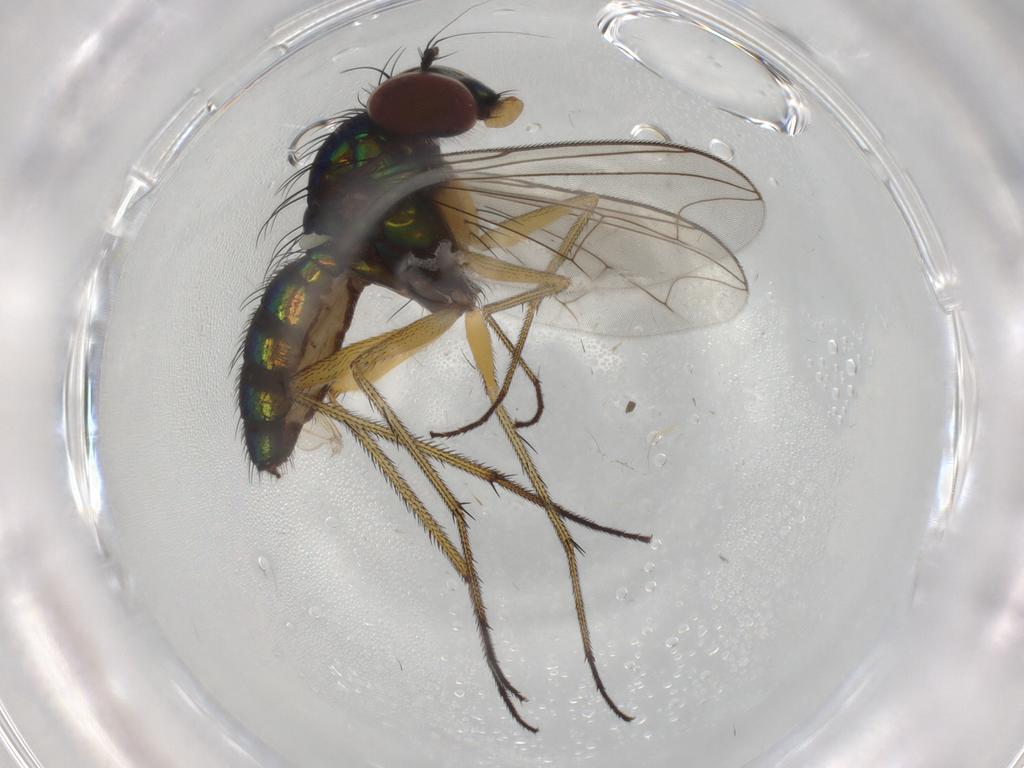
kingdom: Animalia
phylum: Arthropoda
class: Insecta
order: Diptera
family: Dolichopodidae
